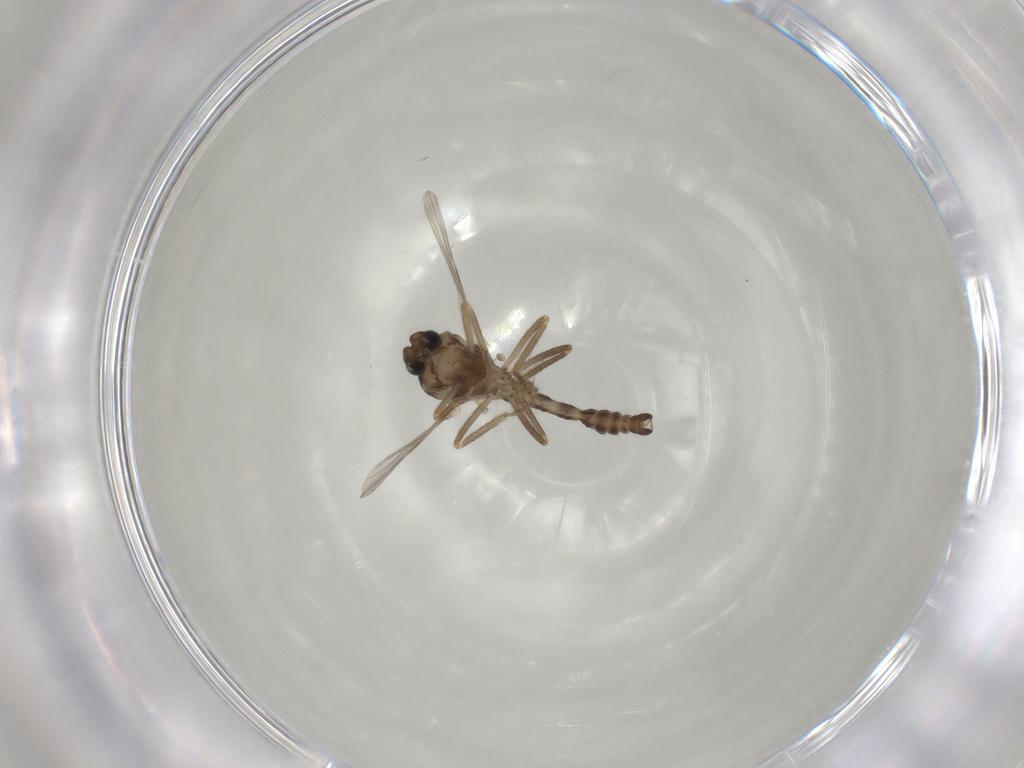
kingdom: Animalia
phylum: Arthropoda
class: Insecta
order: Diptera
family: Ceratopogonidae
